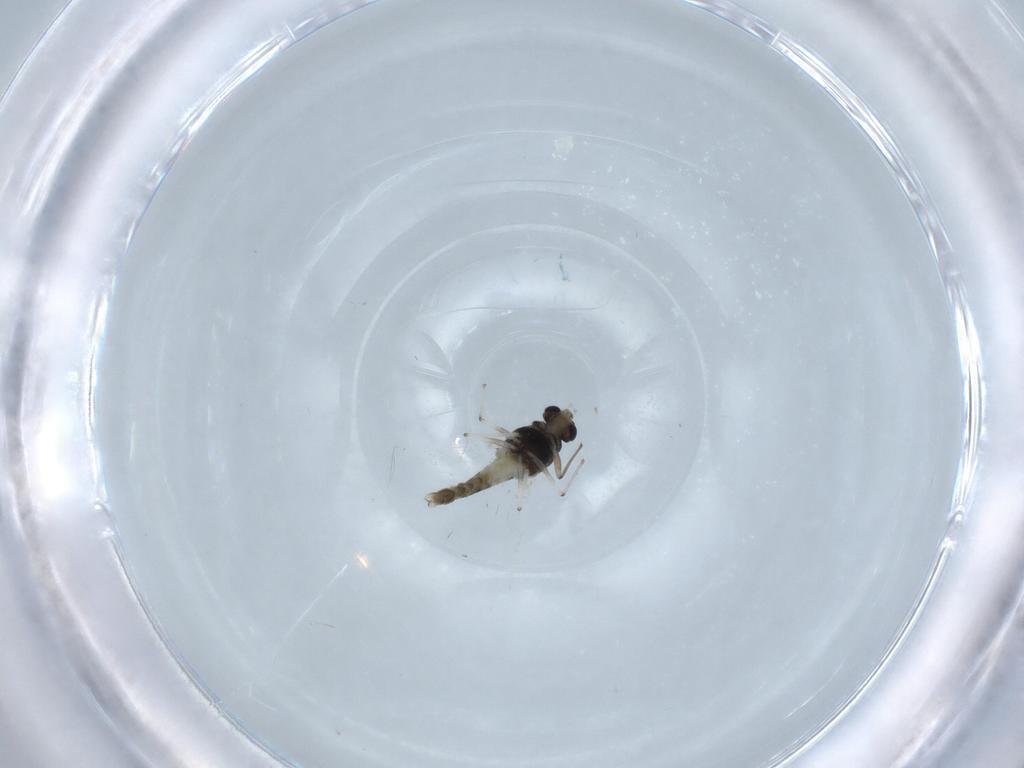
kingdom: Animalia
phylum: Arthropoda
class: Insecta
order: Diptera
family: Chironomidae
